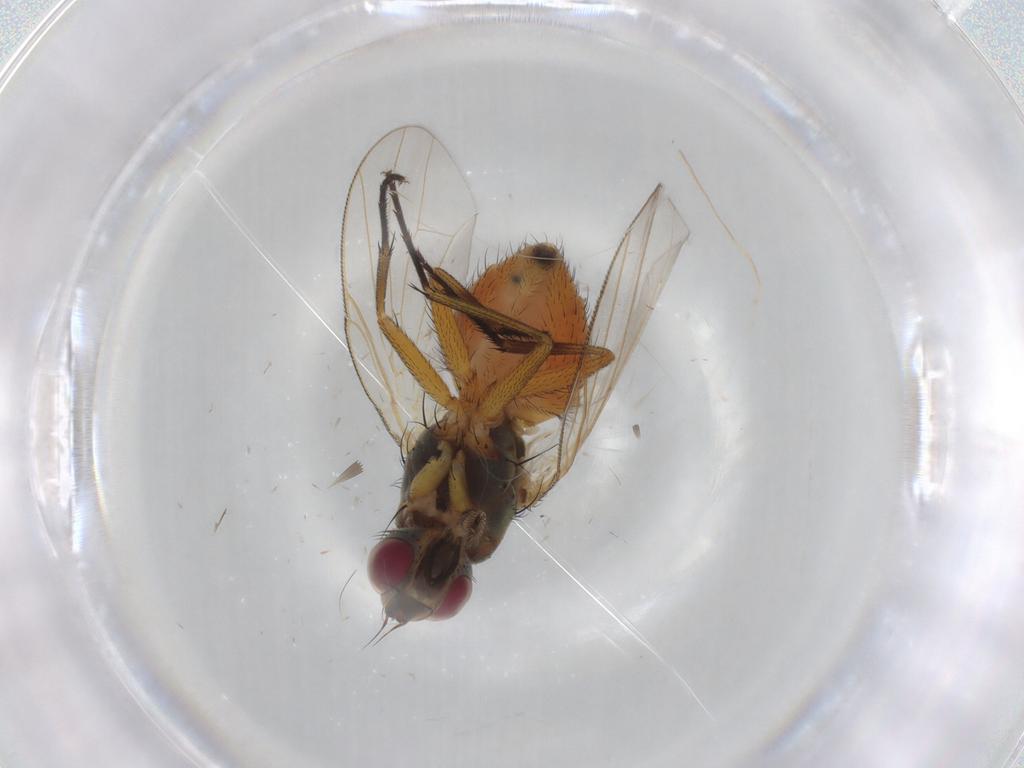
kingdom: Animalia
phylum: Arthropoda
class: Insecta
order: Diptera
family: Muscidae
